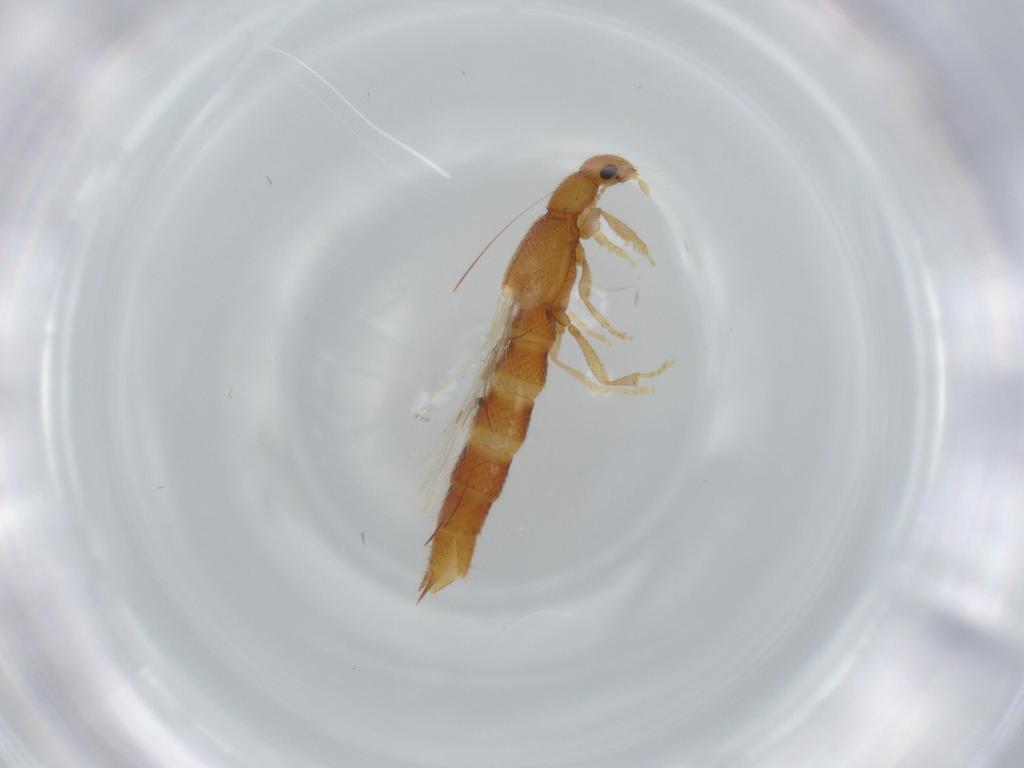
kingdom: Animalia
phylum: Arthropoda
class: Insecta
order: Coleoptera
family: Staphylinidae
